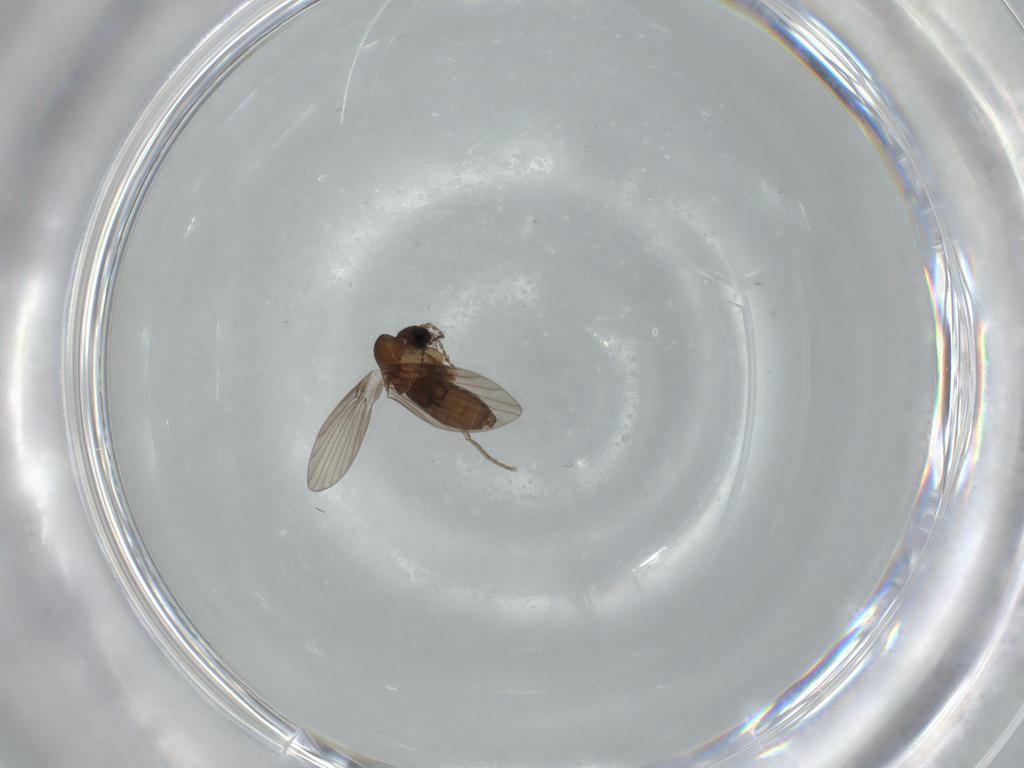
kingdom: Animalia
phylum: Arthropoda
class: Insecta
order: Diptera
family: Psychodidae
